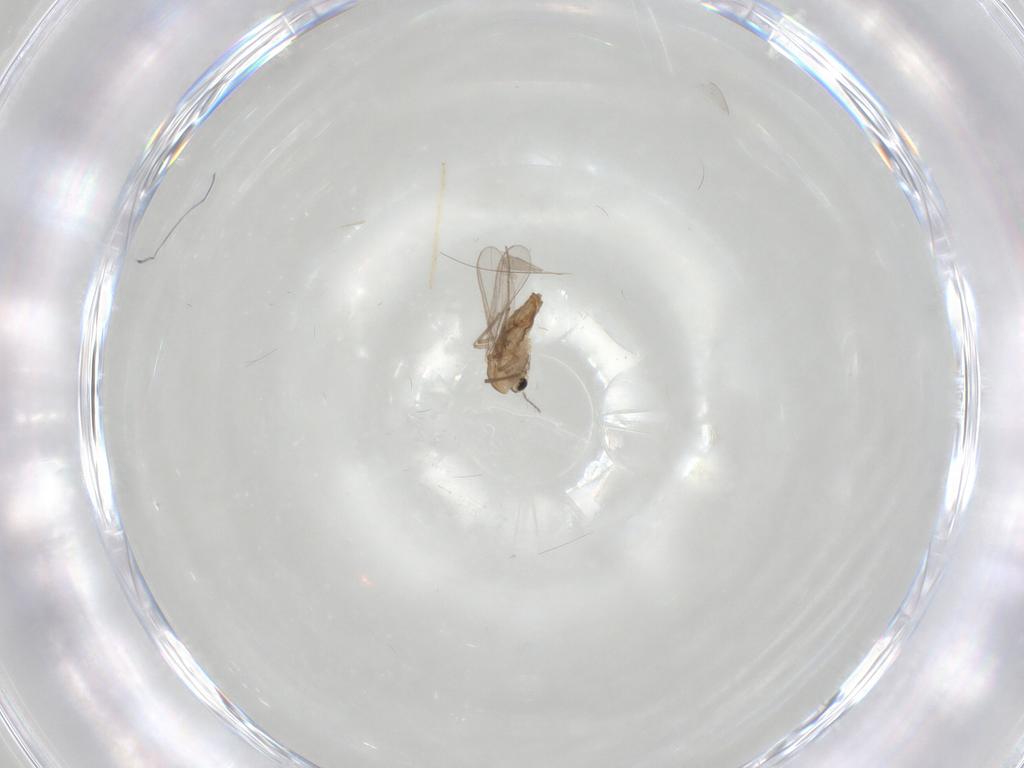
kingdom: Animalia
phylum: Arthropoda
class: Insecta
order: Diptera
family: Chironomidae
